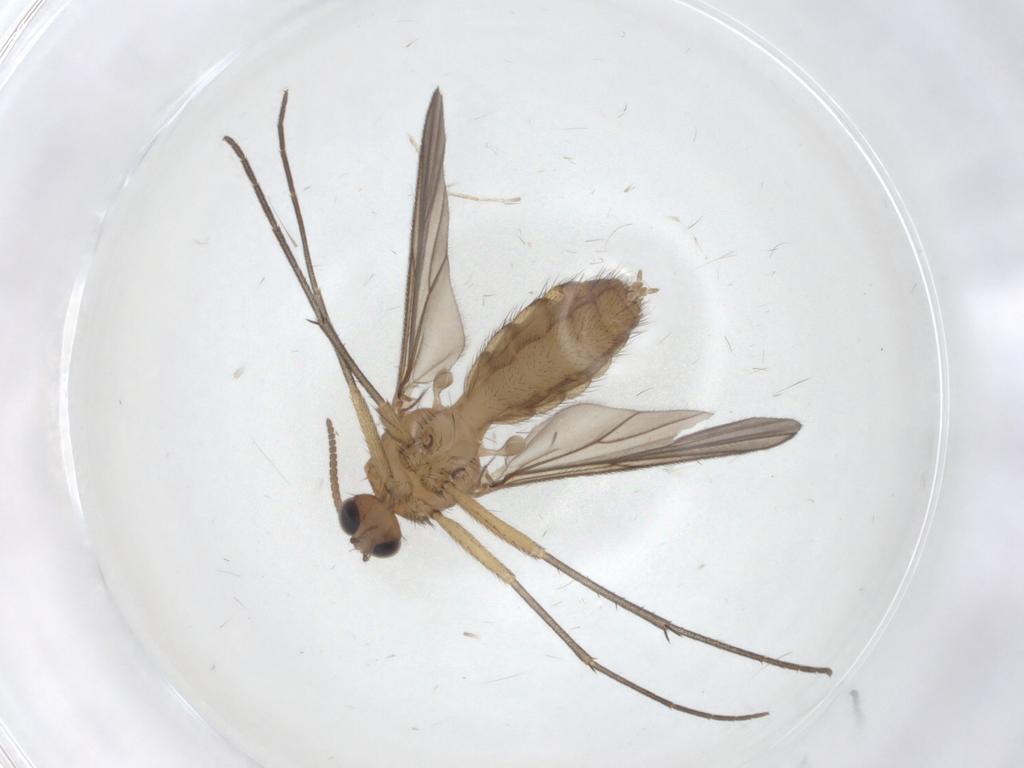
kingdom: Animalia
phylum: Arthropoda
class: Insecta
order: Diptera
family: Mycetophilidae
